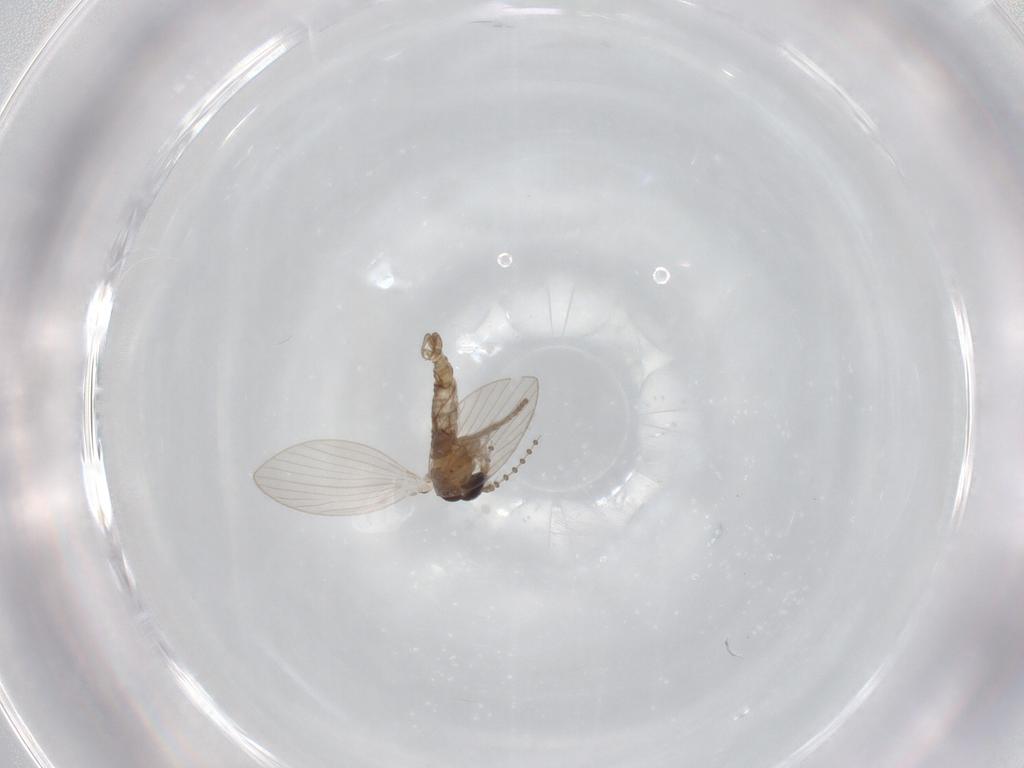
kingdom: Animalia
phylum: Arthropoda
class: Insecta
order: Diptera
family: Psychodidae
